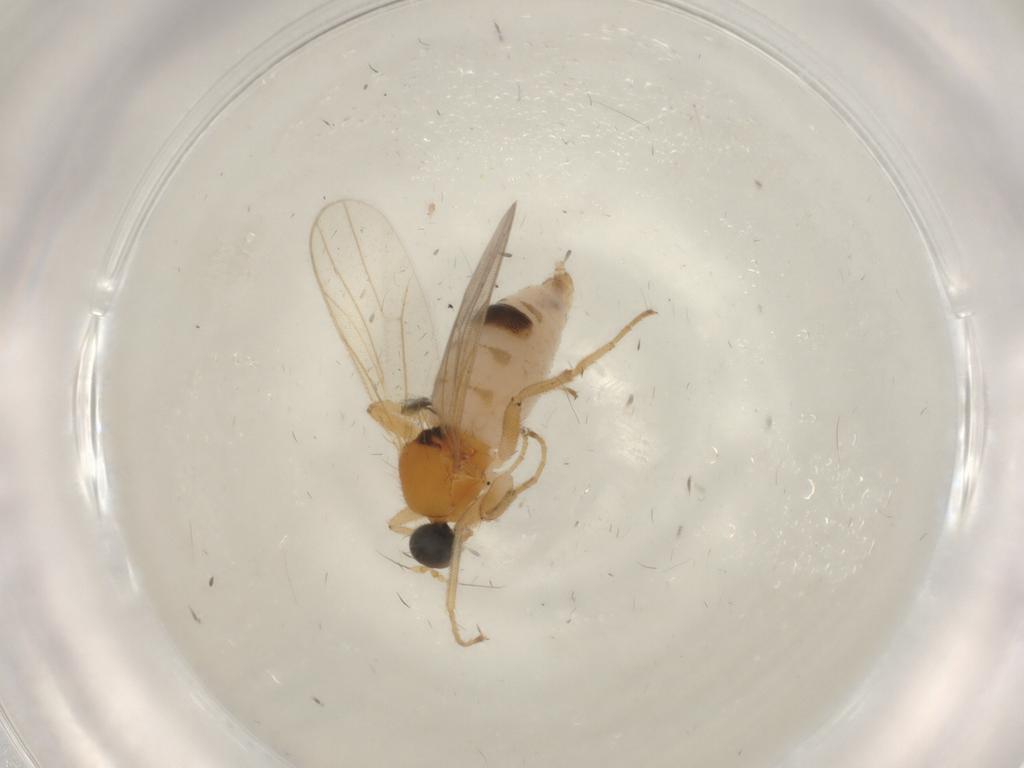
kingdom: Animalia
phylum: Arthropoda
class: Insecta
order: Diptera
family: Hybotidae
